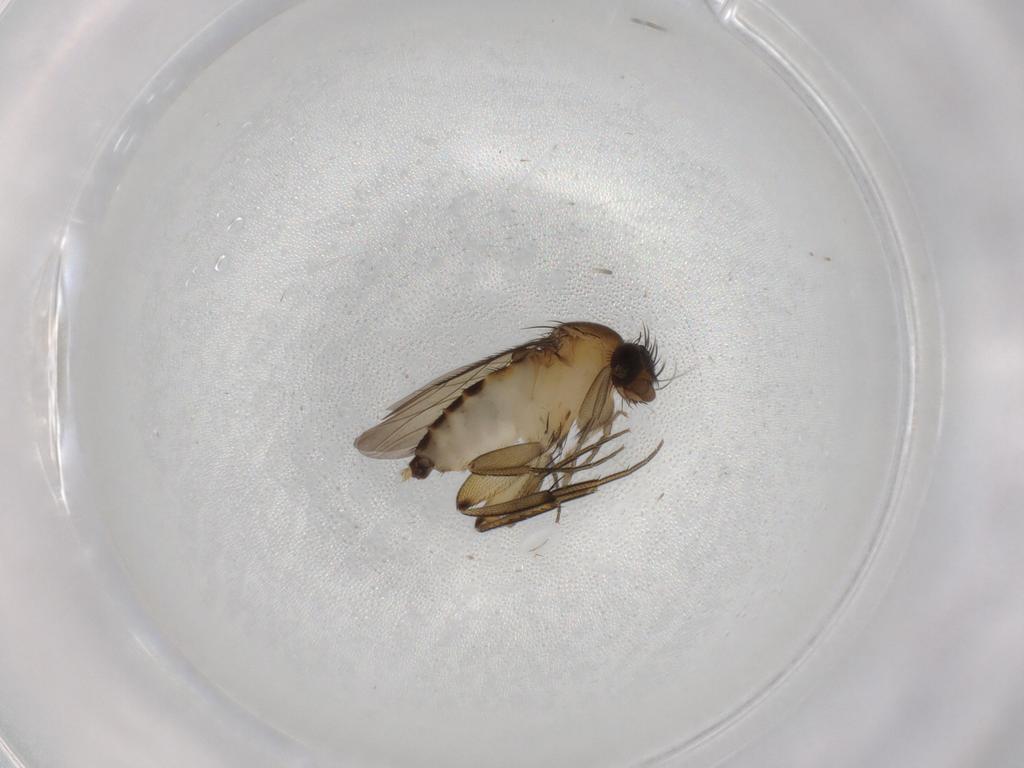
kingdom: Animalia
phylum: Arthropoda
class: Insecta
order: Diptera
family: Phoridae
